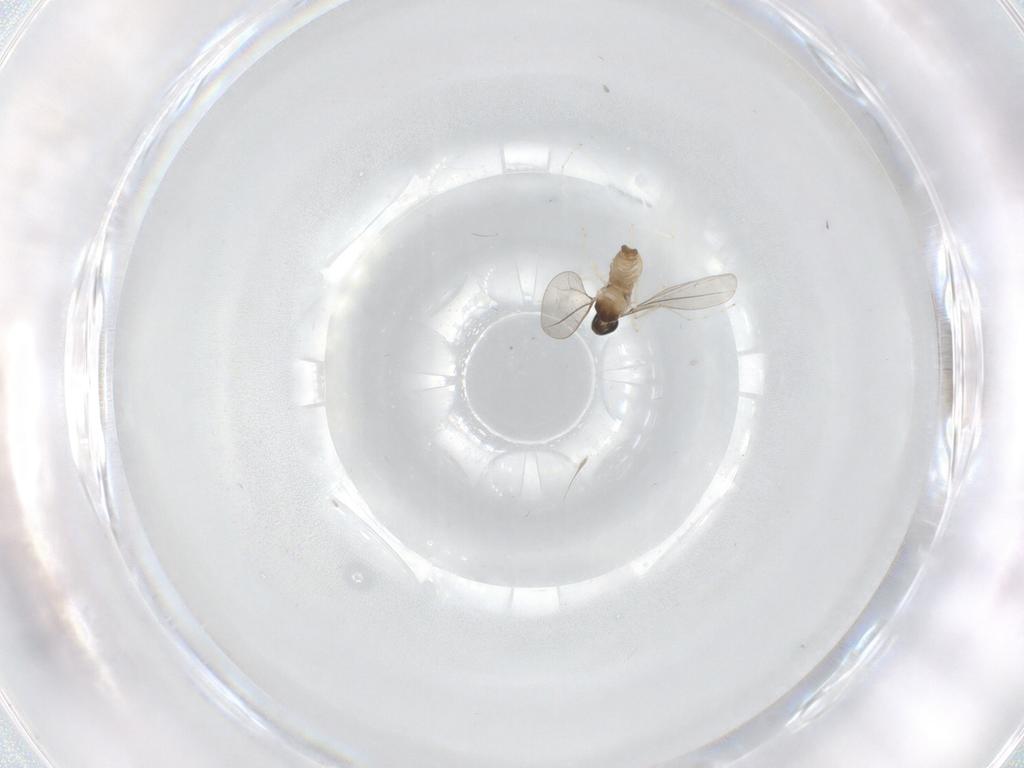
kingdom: Animalia
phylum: Arthropoda
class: Insecta
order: Diptera
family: Cecidomyiidae
